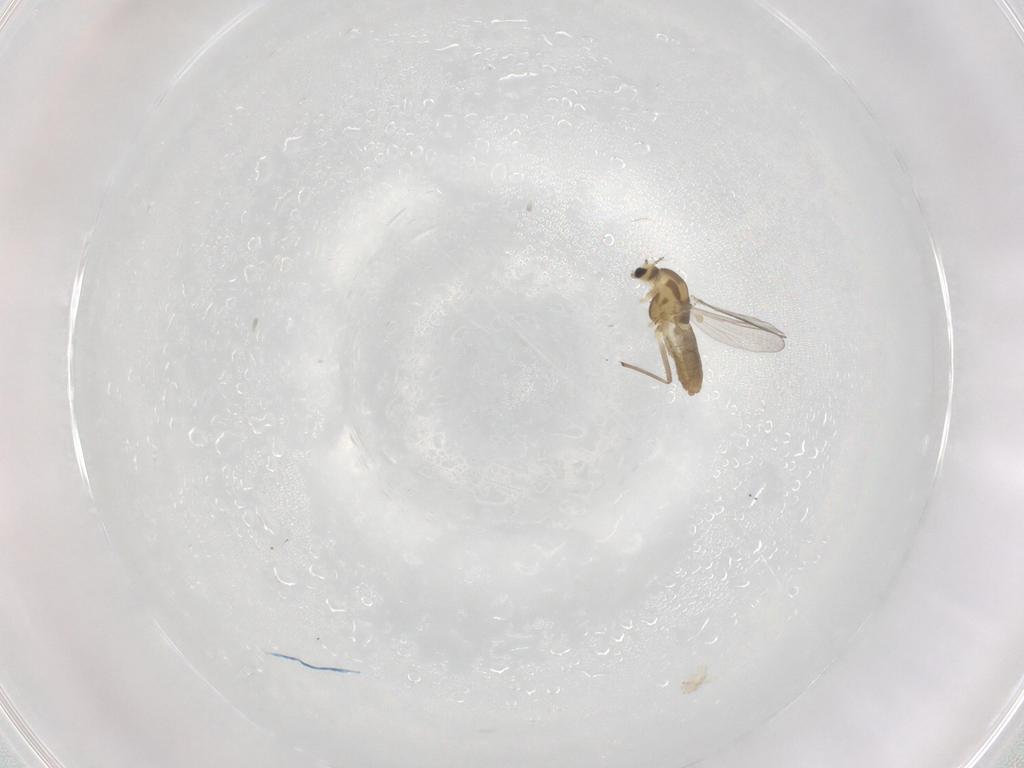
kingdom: Animalia
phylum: Arthropoda
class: Insecta
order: Diptera
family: Chironomidae
